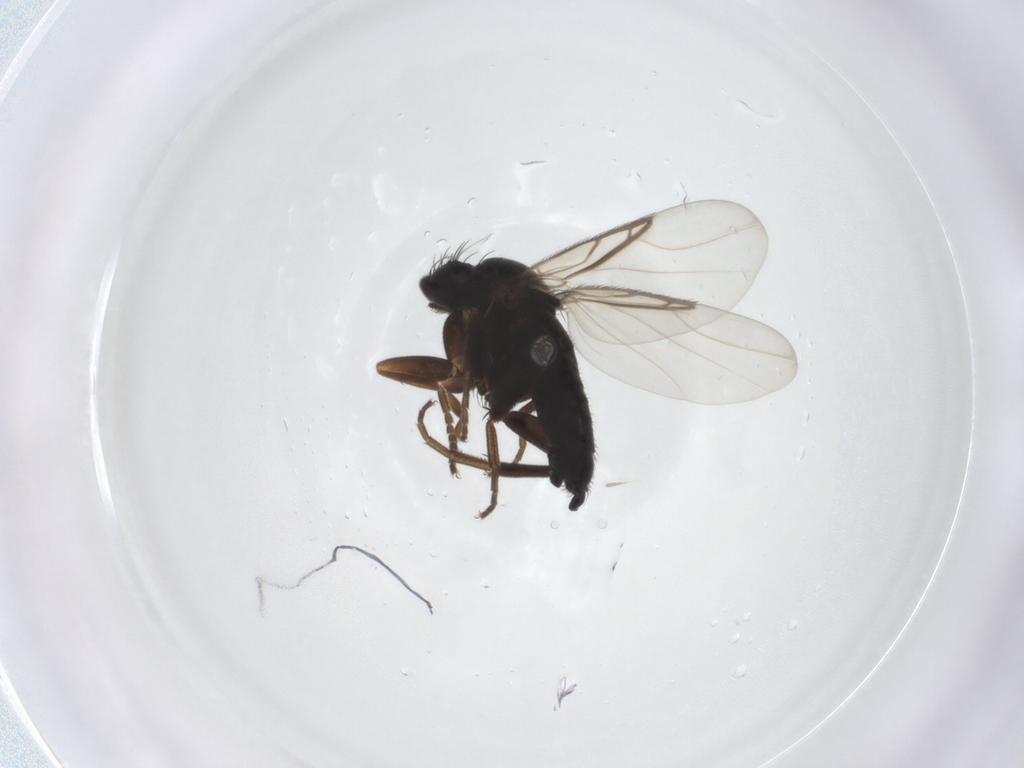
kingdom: Animalia
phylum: Arthropoda
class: Insecta
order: Diptera
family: Phoridae
